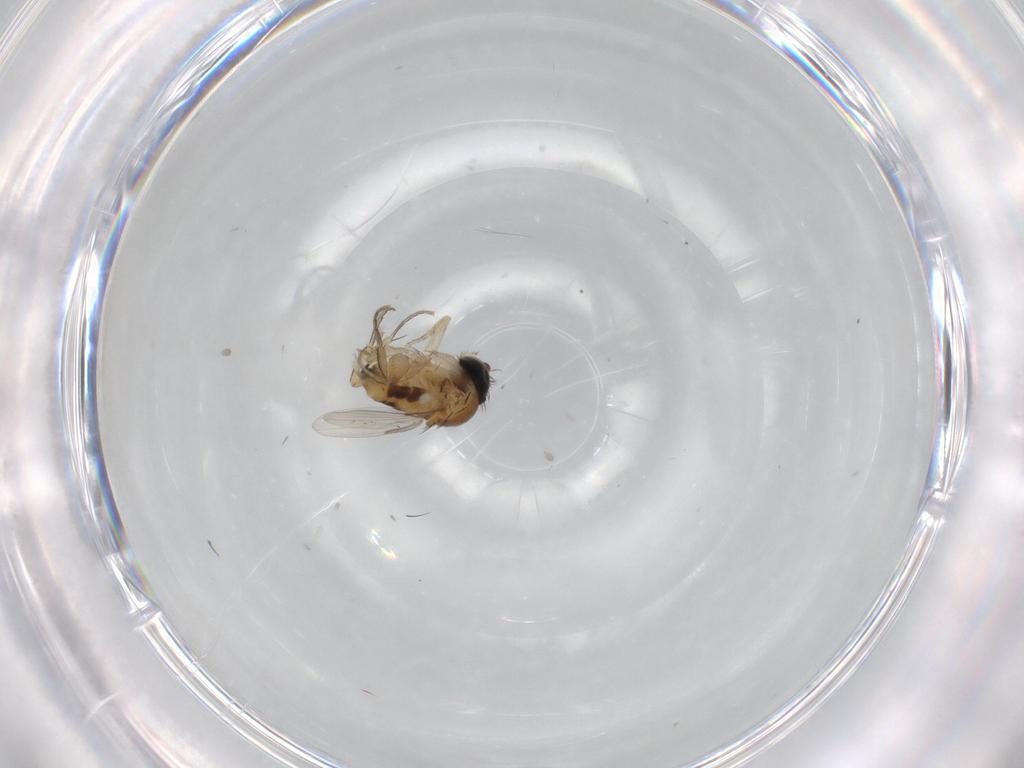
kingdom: Animalia
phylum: Arthropoda
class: Insecta
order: Diptera
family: Phoridae
